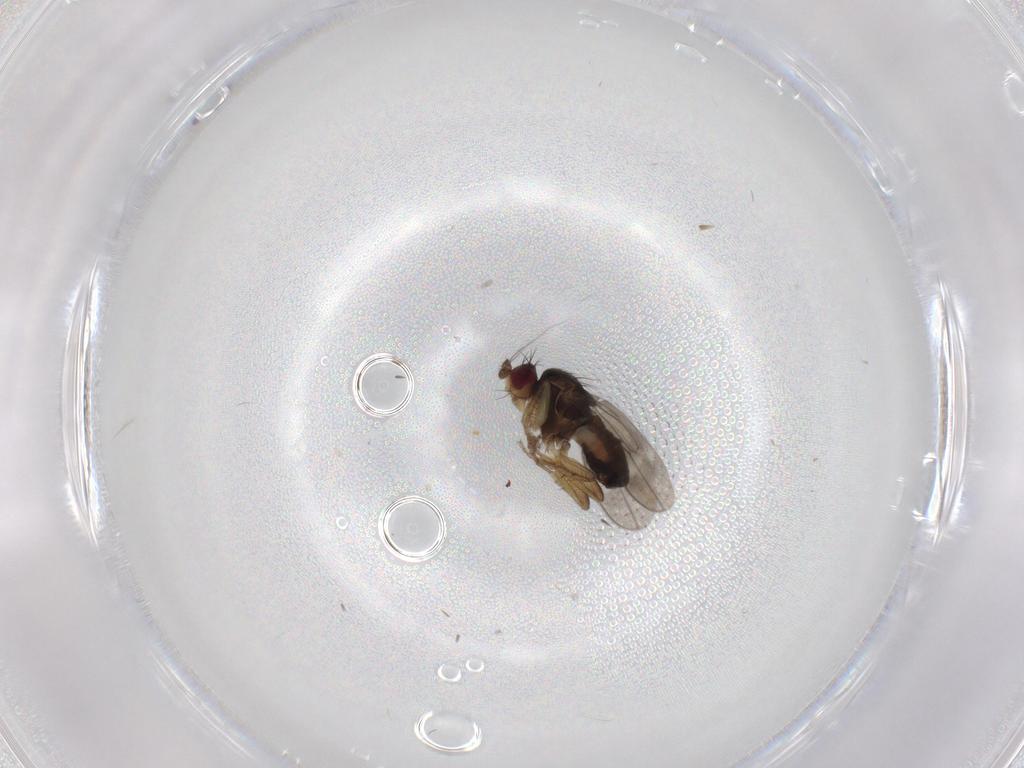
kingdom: Animalia
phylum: Arthropoda
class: Insecta
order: Diptera
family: Sphaeroceridae
